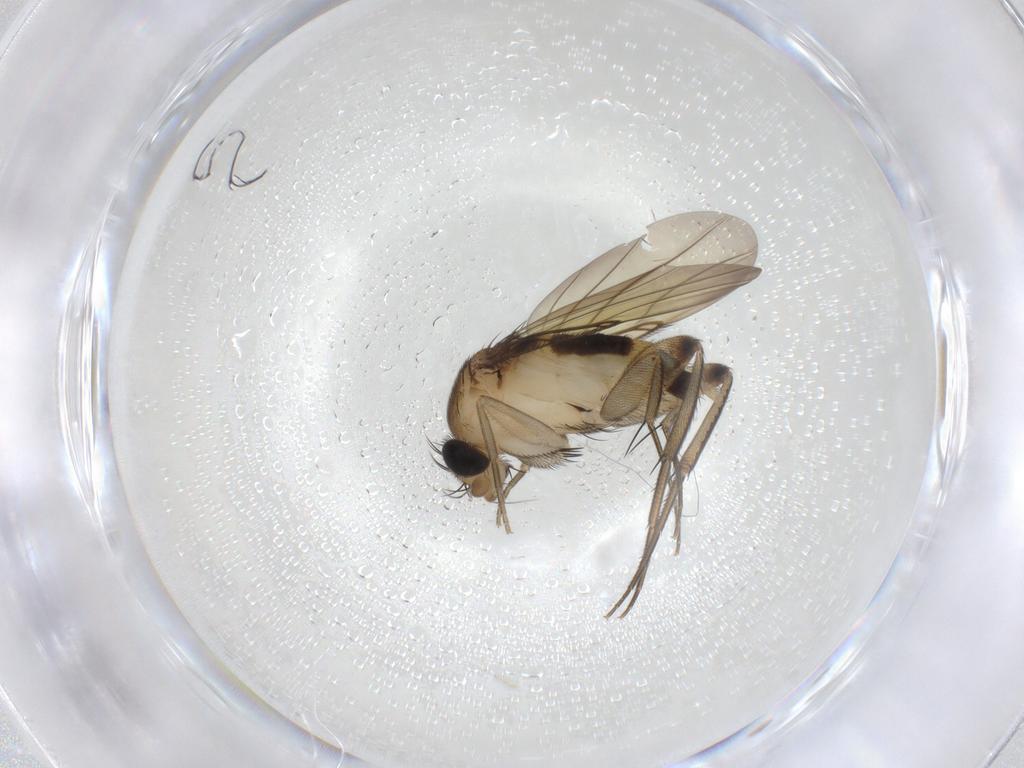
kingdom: Animalia
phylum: Arthropoda
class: Insecta
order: Diptera
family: Phoridae
